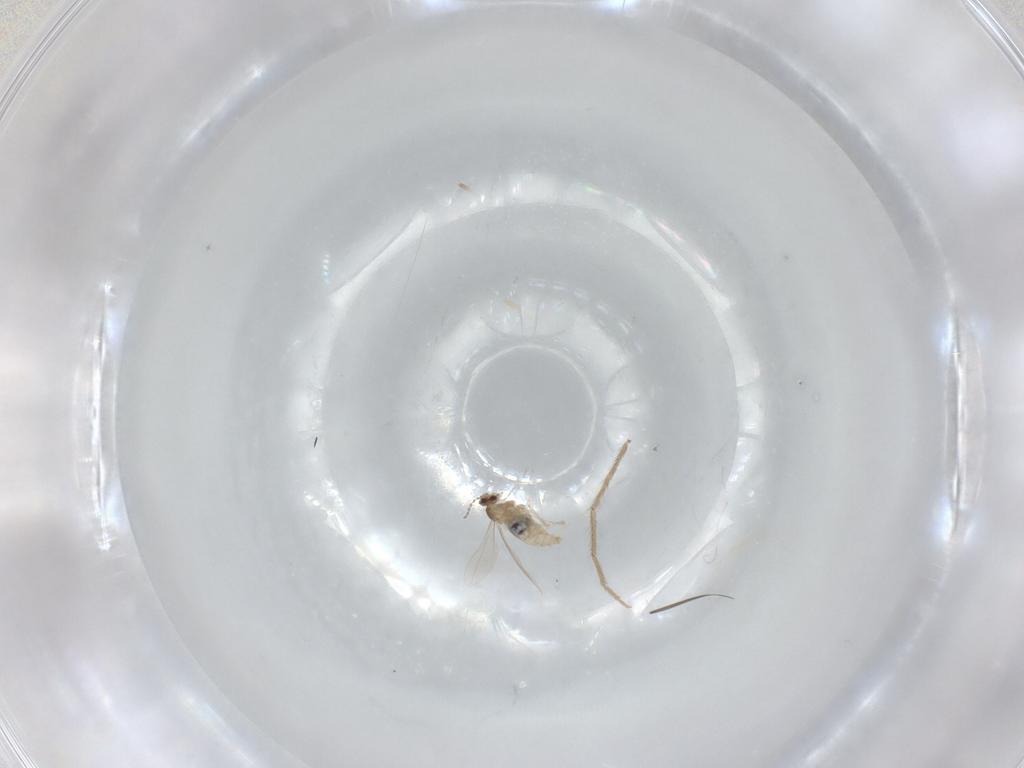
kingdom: Animalia
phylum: Arthropoda
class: Insecta
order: Diptera
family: Cecidomyiidae
